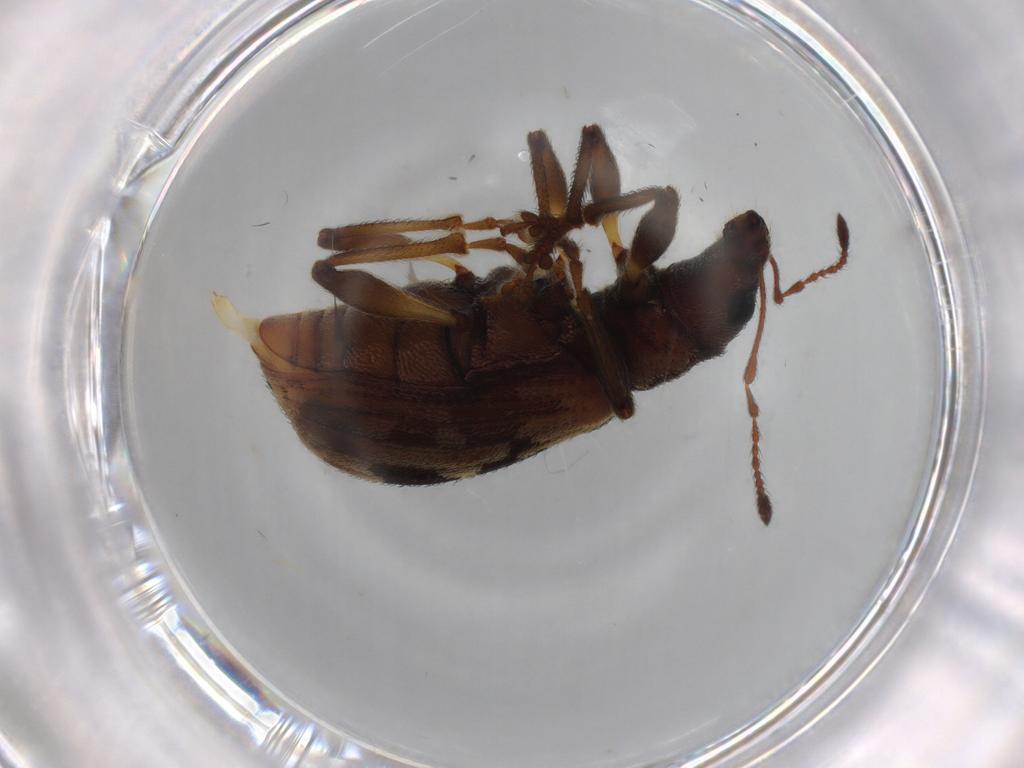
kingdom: Animalia
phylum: Arthropoda
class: Insecta
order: Coleoptera
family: Curculionidae
